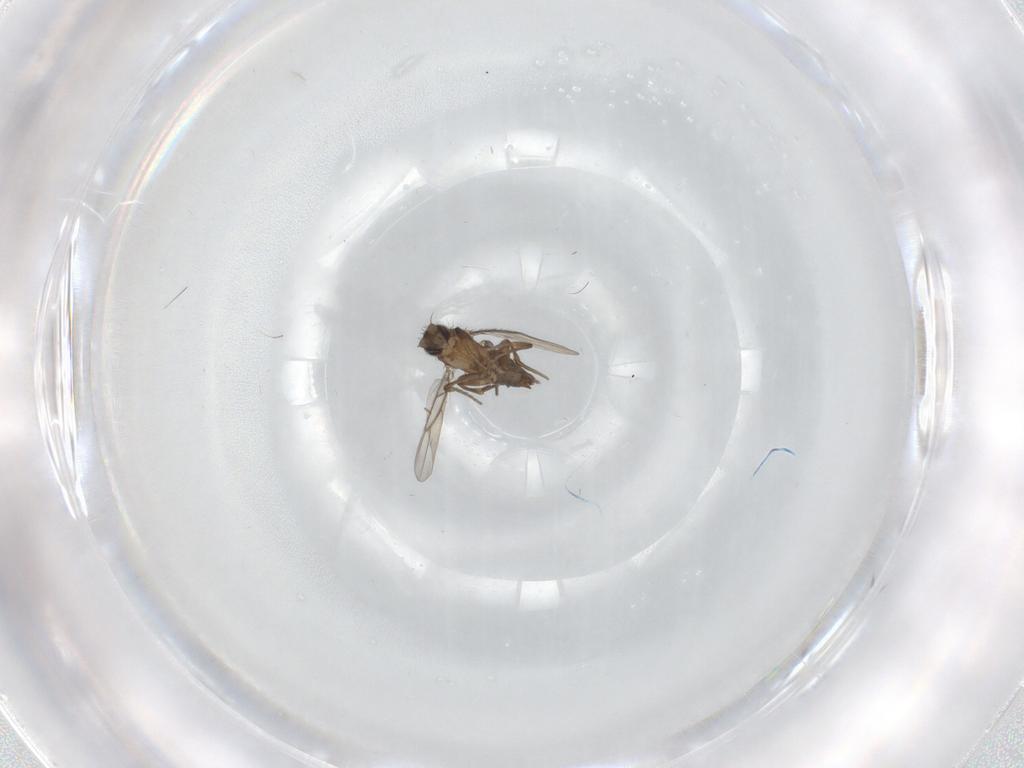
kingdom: Animalia
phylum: Arthropoda
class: Insecta
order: Diptera
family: Phoridae
